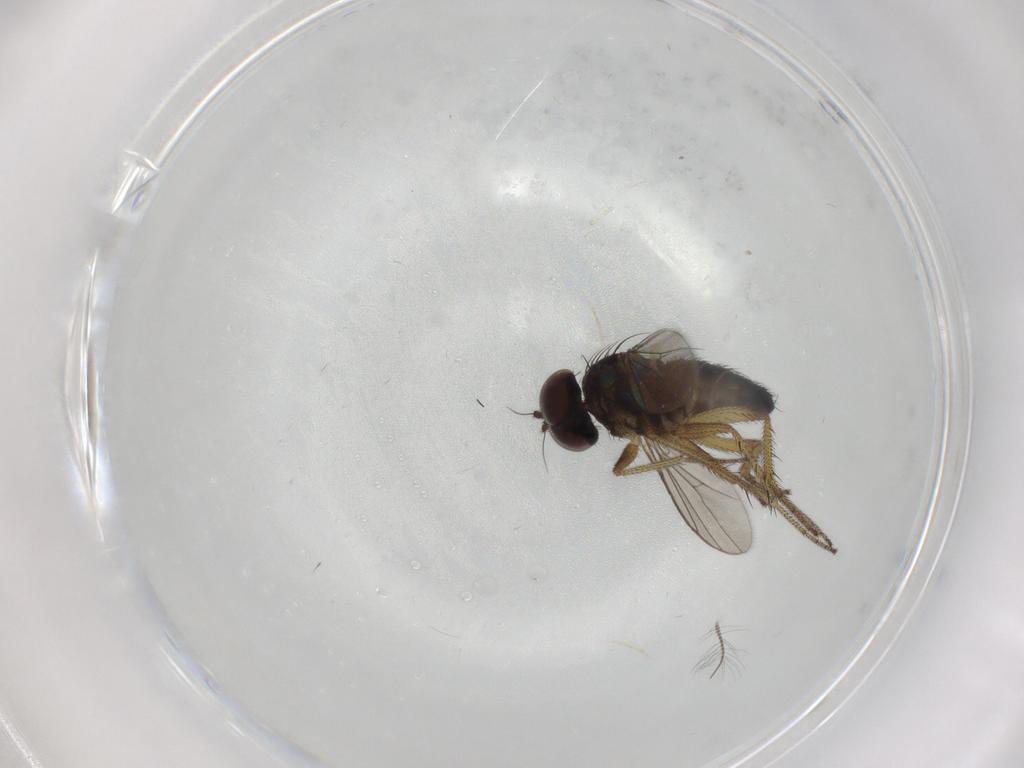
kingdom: Animalia
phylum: Arthropoda
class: Insecta
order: Diptera
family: Dolichopodidae
